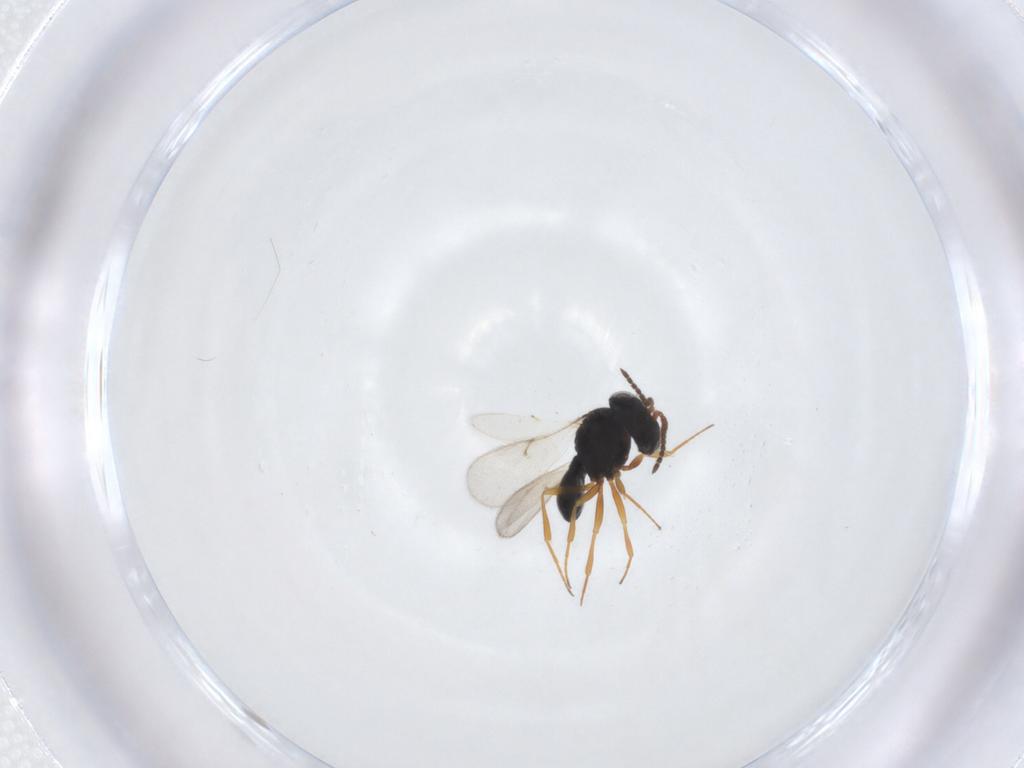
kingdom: Animalia
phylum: Arthropoda
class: Insecta
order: Hymenoptera
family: Scelionidae
